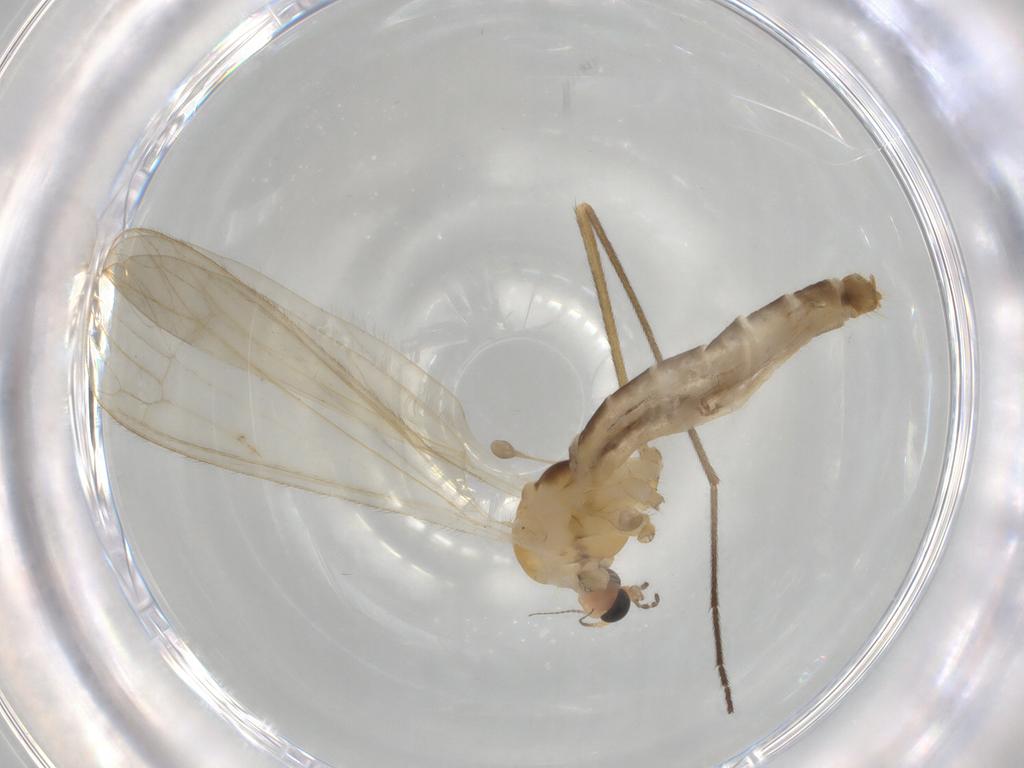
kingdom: Animalia
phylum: Arthropoda
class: Insecta
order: Diptera
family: Limoniidae
